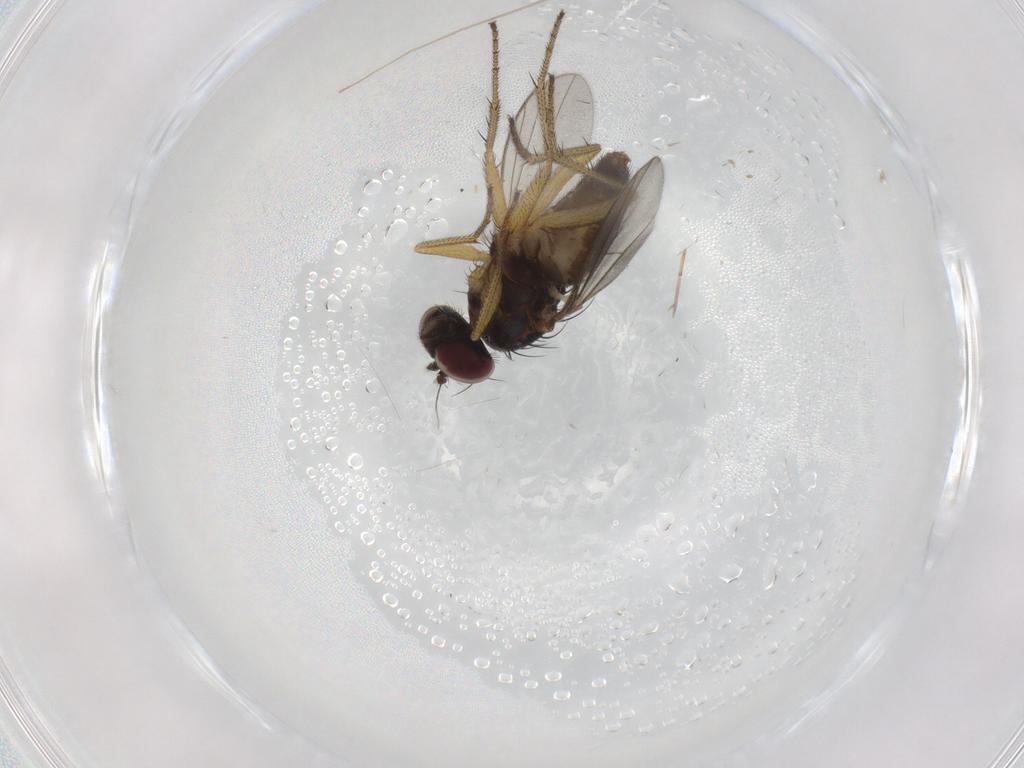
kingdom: Animalia
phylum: Arthropoda
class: Insecta
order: Diptera
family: Chironomidae
